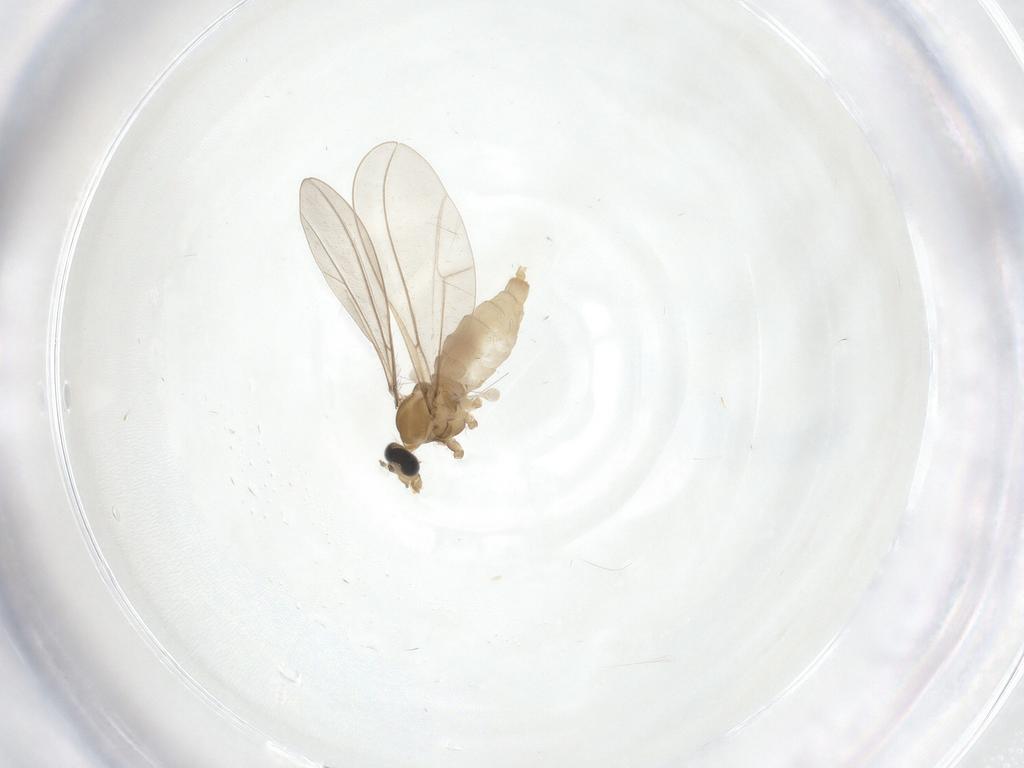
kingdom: Animalia
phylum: Arthropoda
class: Insecta
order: Diptera
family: Cecidomyiidae
